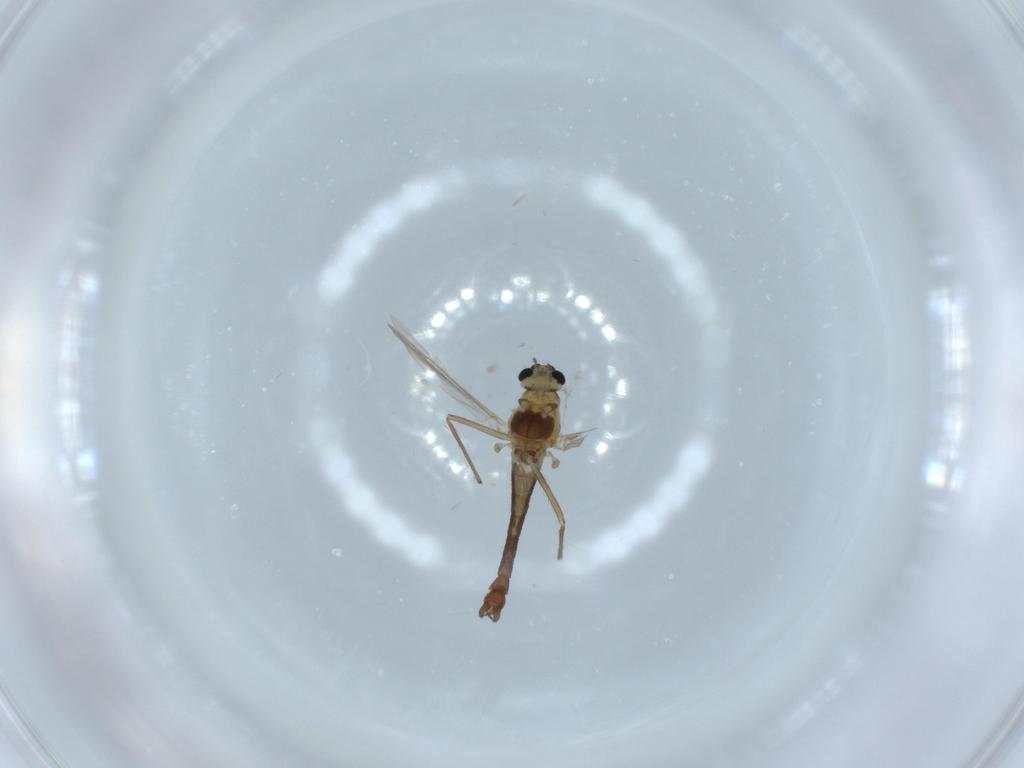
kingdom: Animalia
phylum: Arthropoda
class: Insecta
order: Diptera
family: Chironomidae
